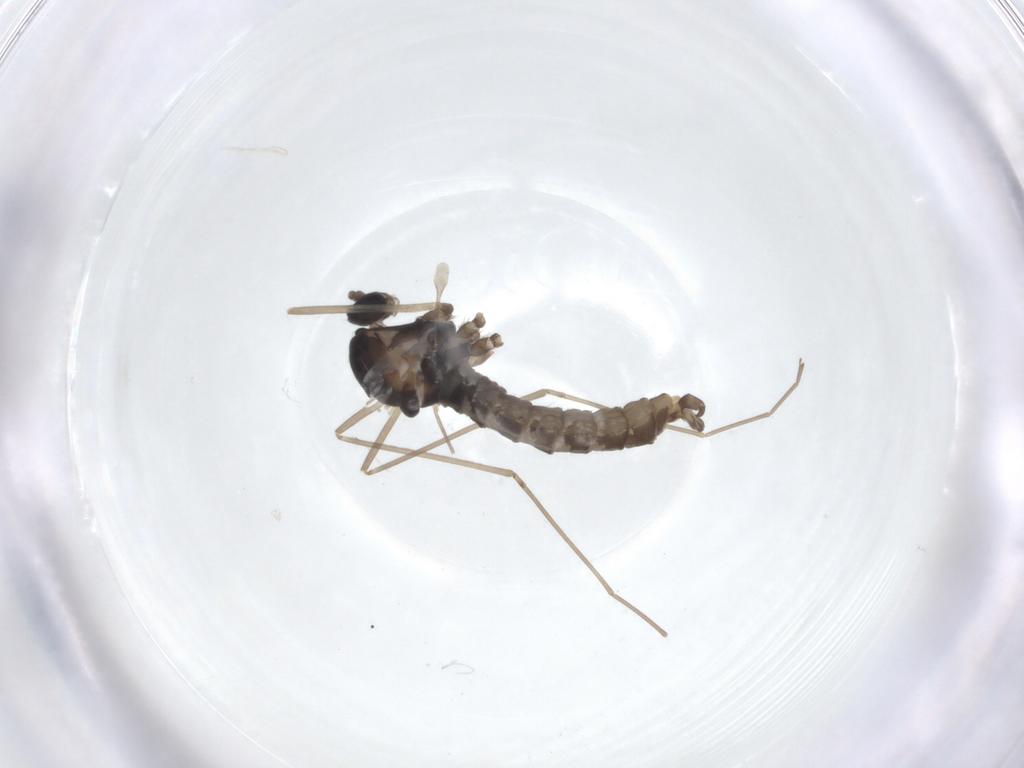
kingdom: Animalia
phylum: Arthropoda
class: Insecta
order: Diptera
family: Cecidomyiidae
